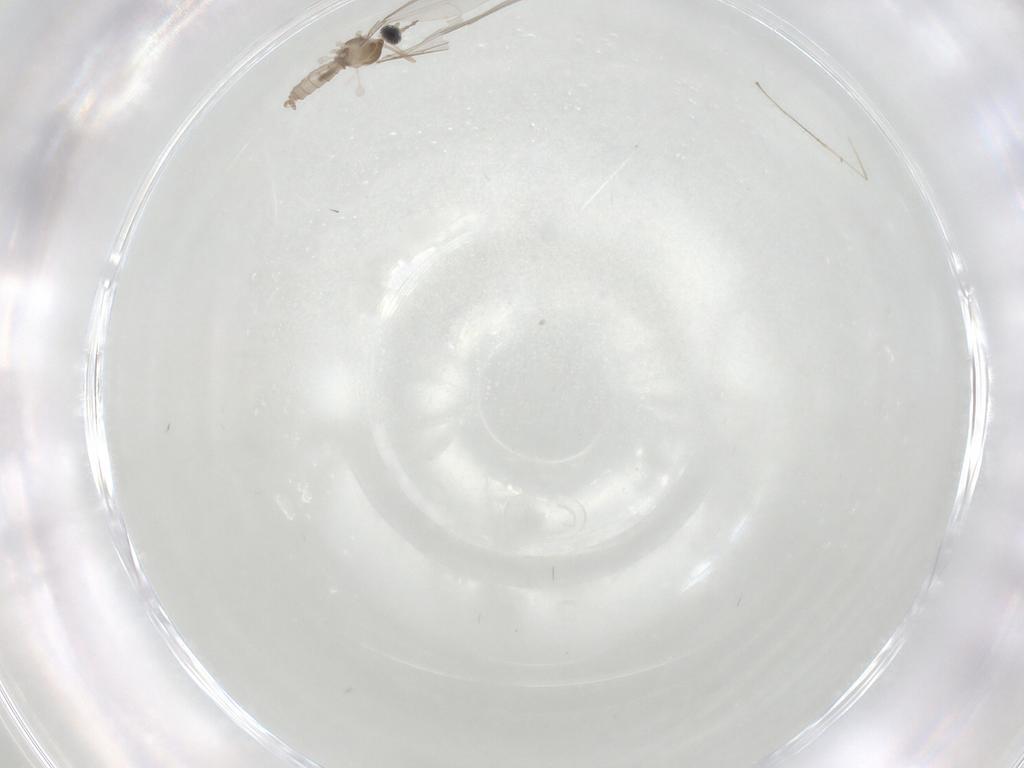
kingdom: Animalia
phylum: Arthropoda
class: Insecta
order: Diptera
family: Cecidomyiidae
